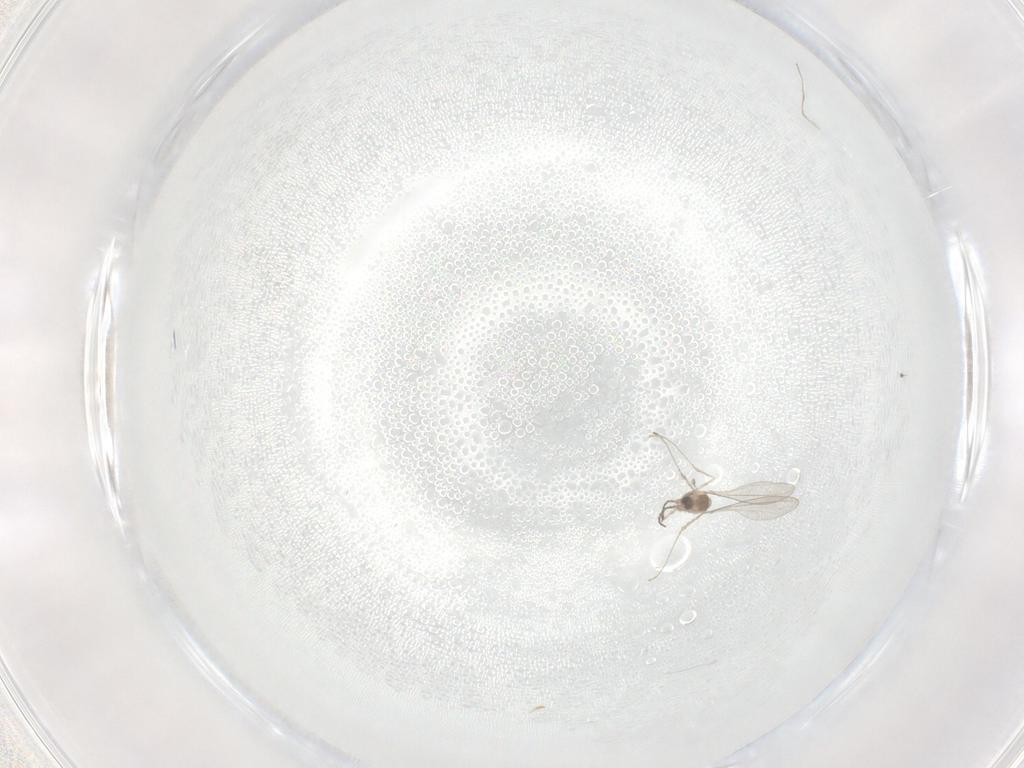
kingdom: Animalia
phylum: Arthropoda
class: Insecta
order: Diptera
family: Cecidomyiidae
